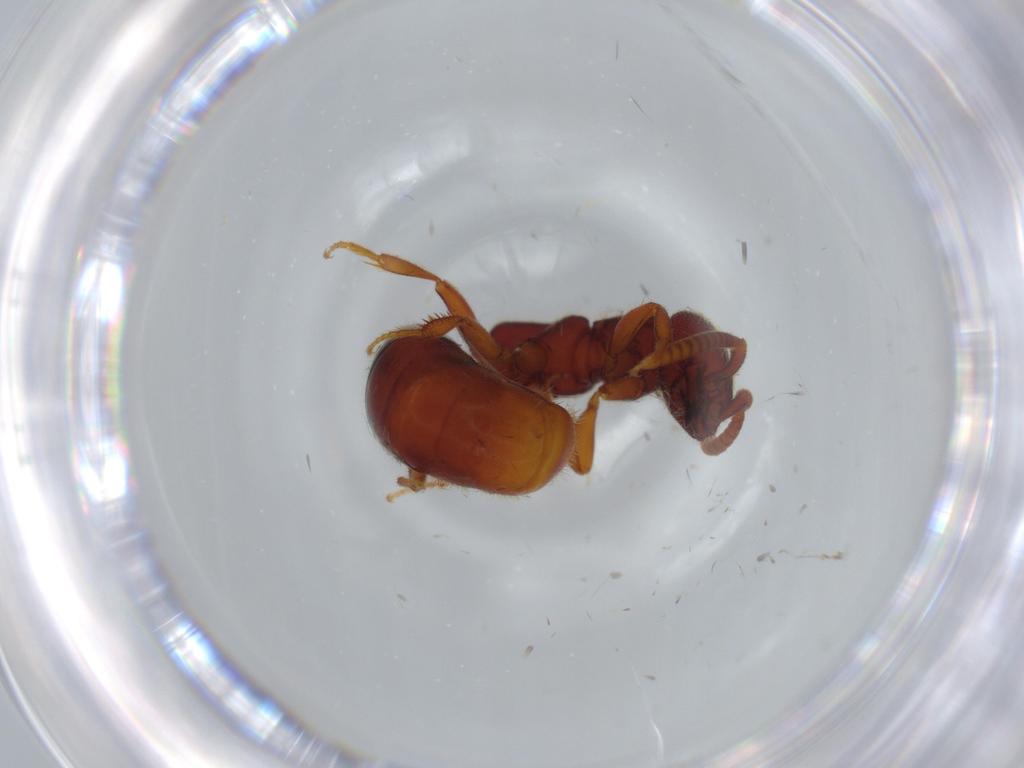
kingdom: Animalia
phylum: Arthropoda
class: Insecta
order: Hymenoptera
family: Bethylidae
